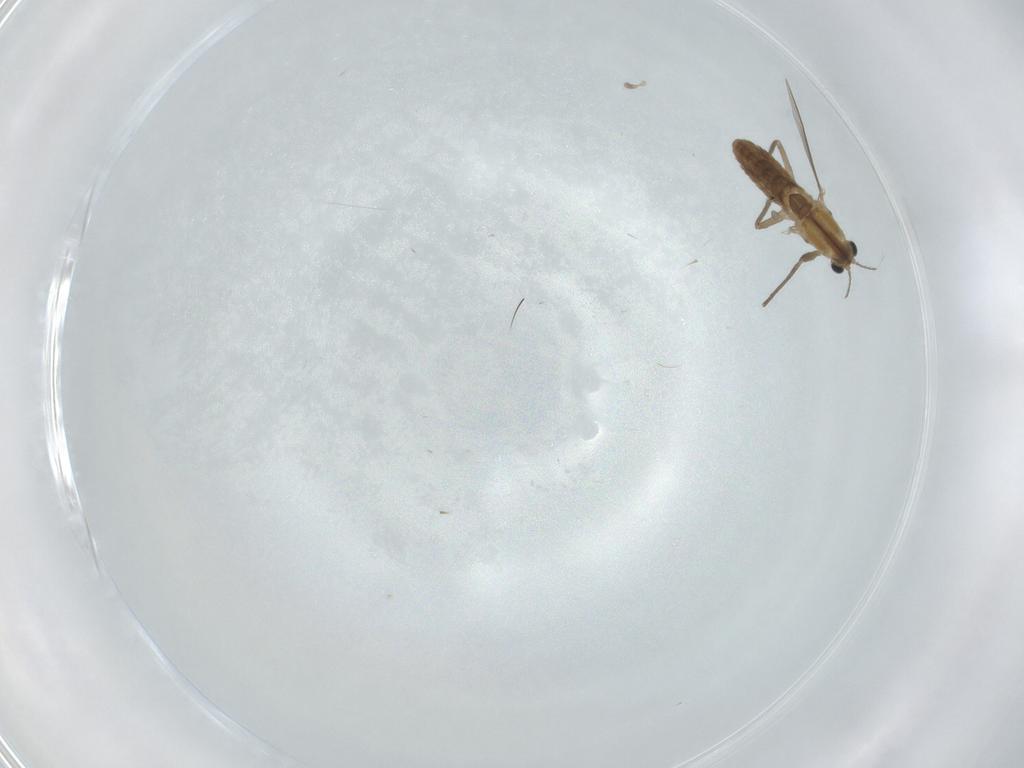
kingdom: Animalia
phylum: Arthropoda
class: Insecta
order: Diptera
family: Chironomidae
